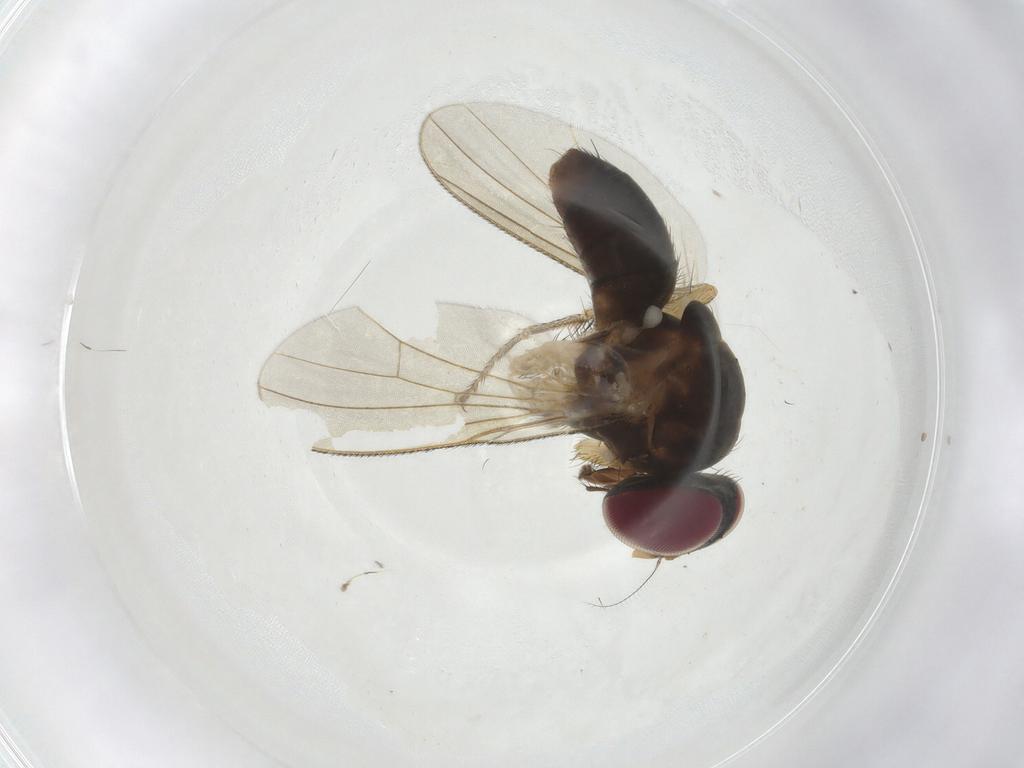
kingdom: Animalia
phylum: Arthropoda
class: Insecta
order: Diptera
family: Anthomyiidae
